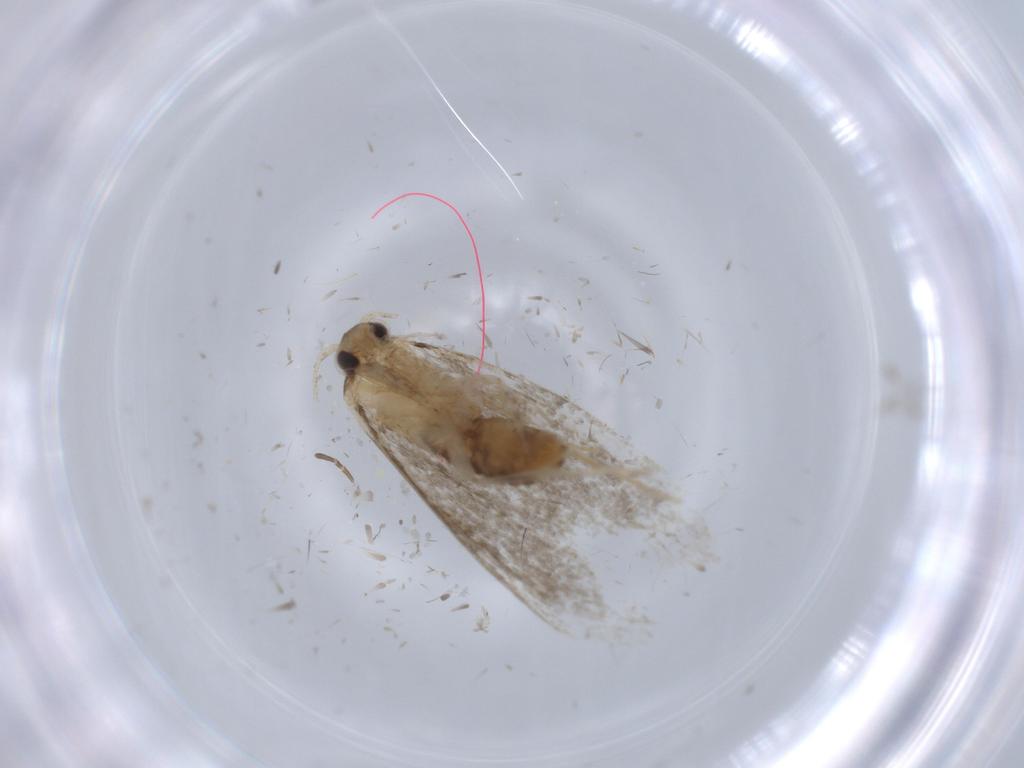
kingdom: Animalia
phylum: Arthropoda
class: Insecta
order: Lepidoptera
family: Tineidae
